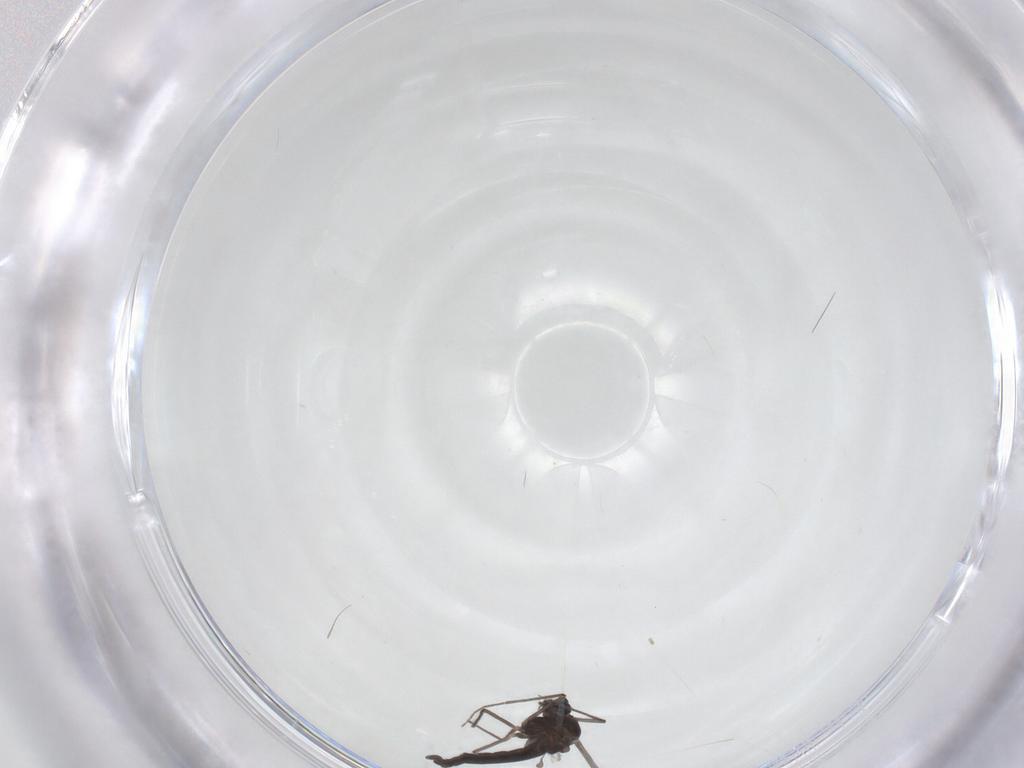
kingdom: Animalia
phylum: Arthropoda
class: Insecta
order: Diptera
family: Chironomidae
